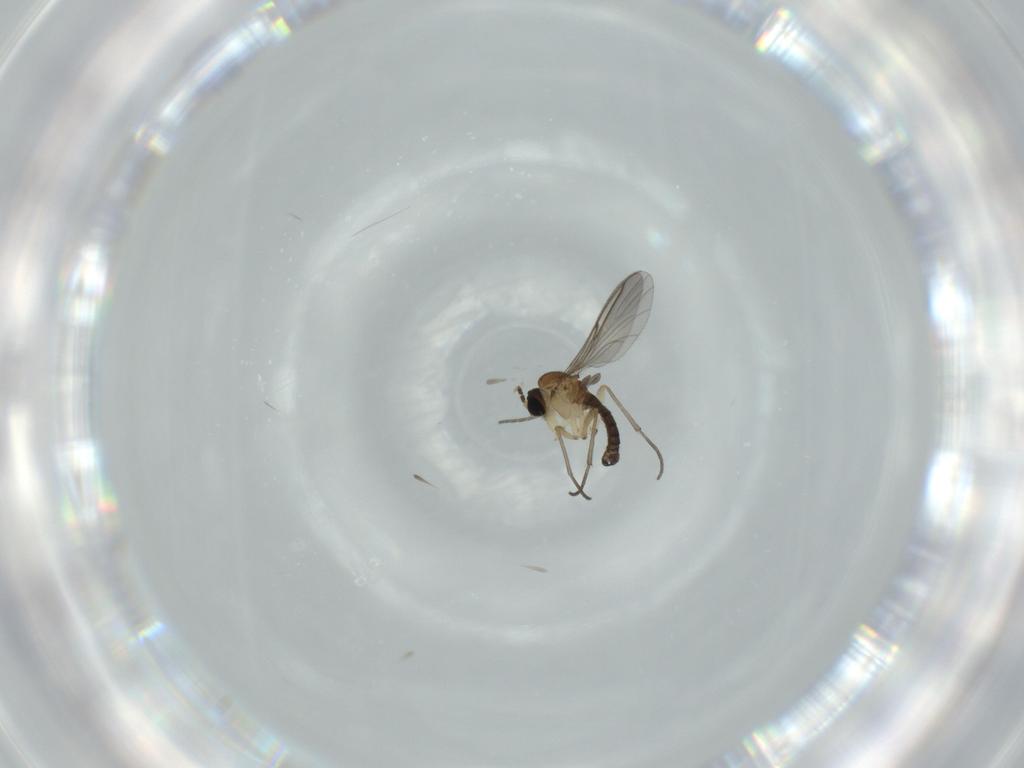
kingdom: Animalia
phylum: Arthropoda
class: Insecta
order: Diptera
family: Sciaridae
